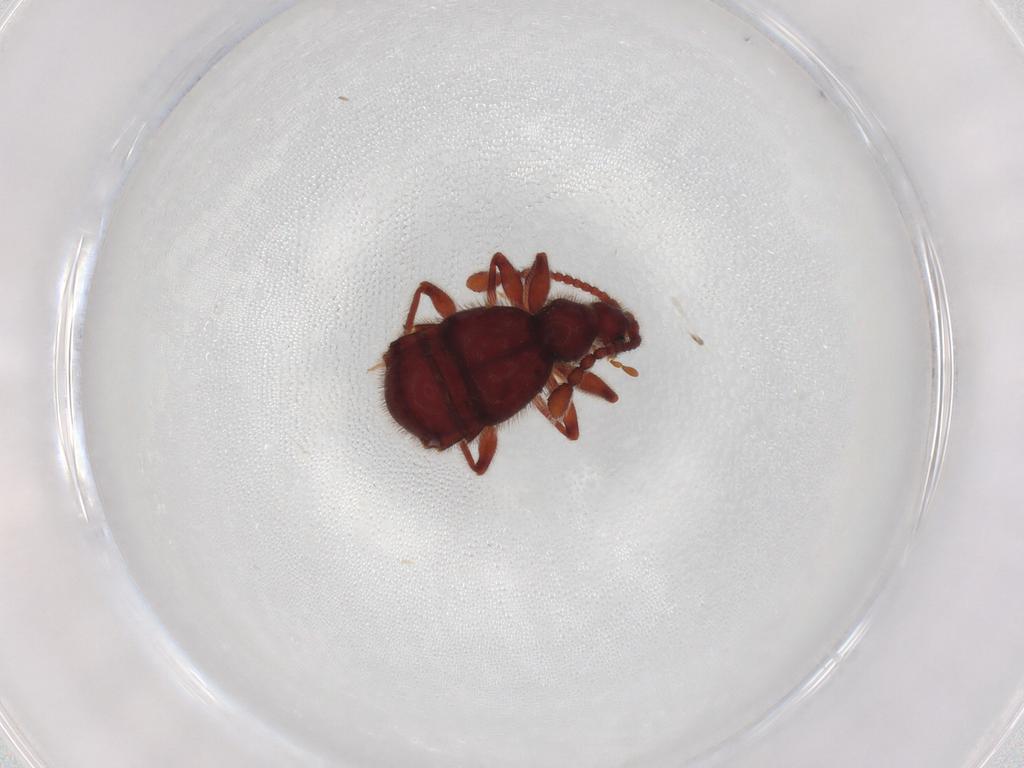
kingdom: Animalia
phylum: Arthropoda
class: Insecta
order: Coleoptera
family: Staphylinidae
